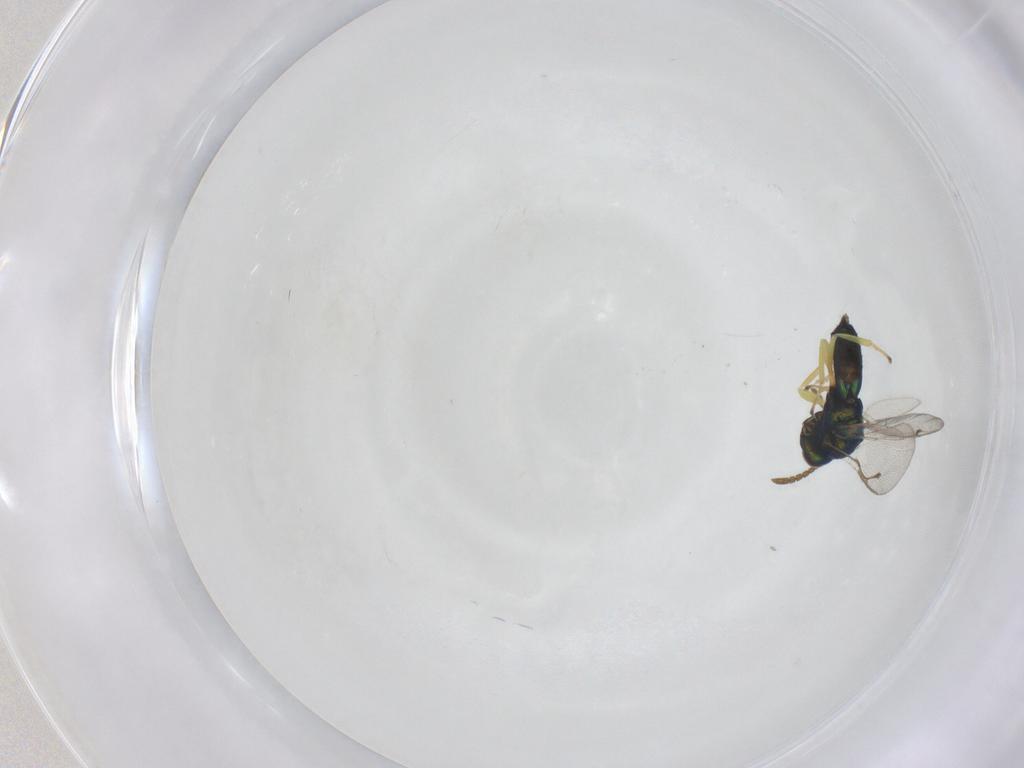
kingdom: Animalia
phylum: Arthropoda
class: Insecta
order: Hymenoptera
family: Pteromalidae
